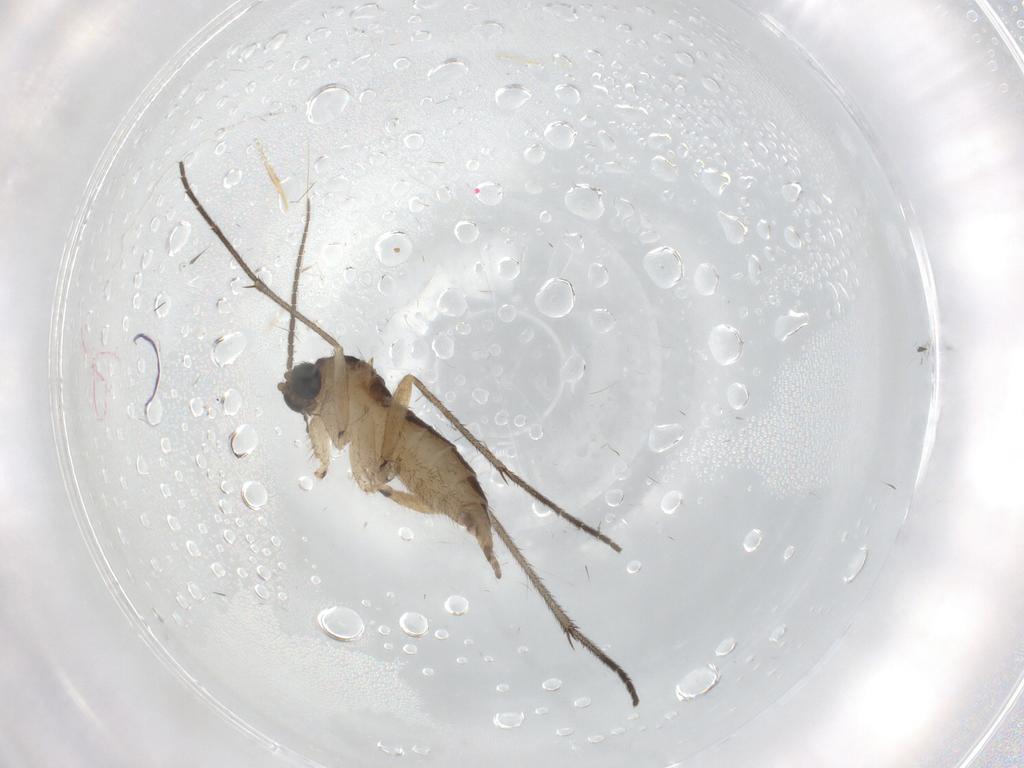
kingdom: Animalia
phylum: Arthropoda
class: Insecta
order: Diptera
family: Sciaridae
